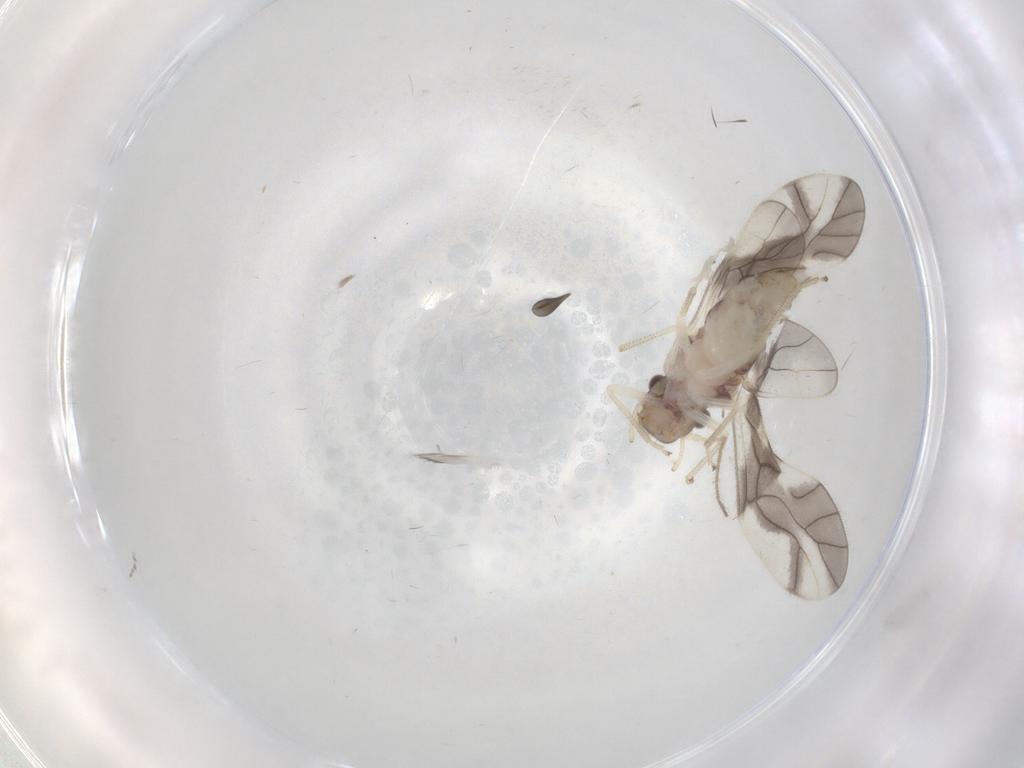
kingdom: Animalia
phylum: Arthropoda
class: Insecta
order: Psocodea
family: Caeciliusidae
